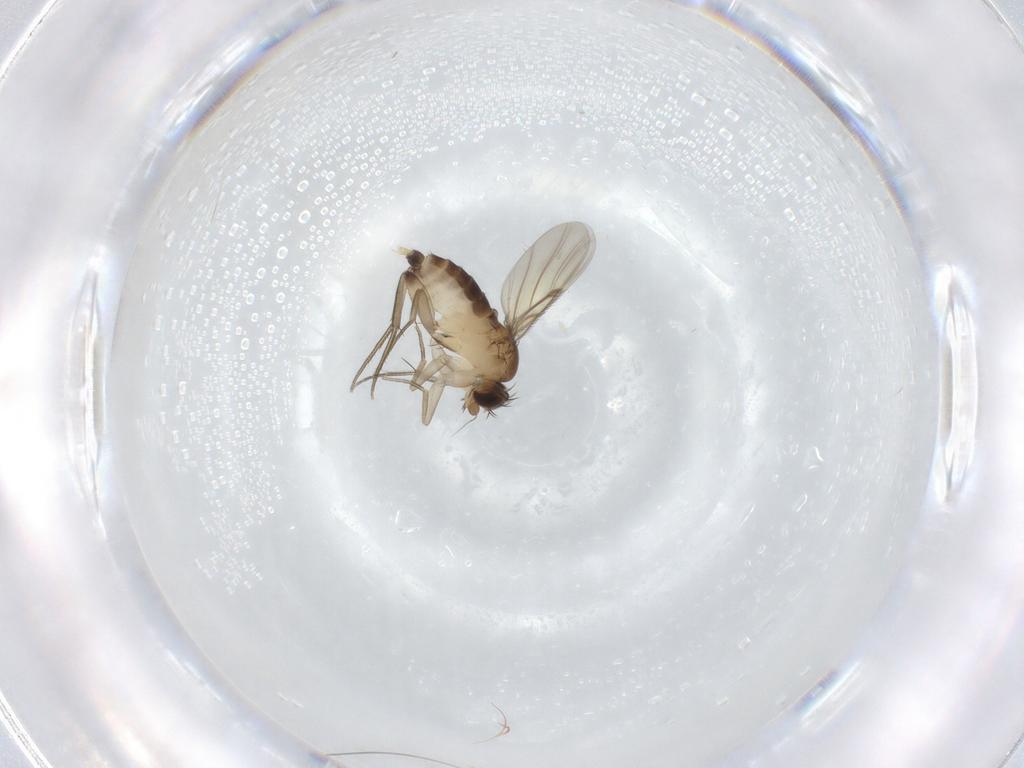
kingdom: Animalia
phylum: Arthropoda
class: Insecta
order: Diptera
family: Phoridae
